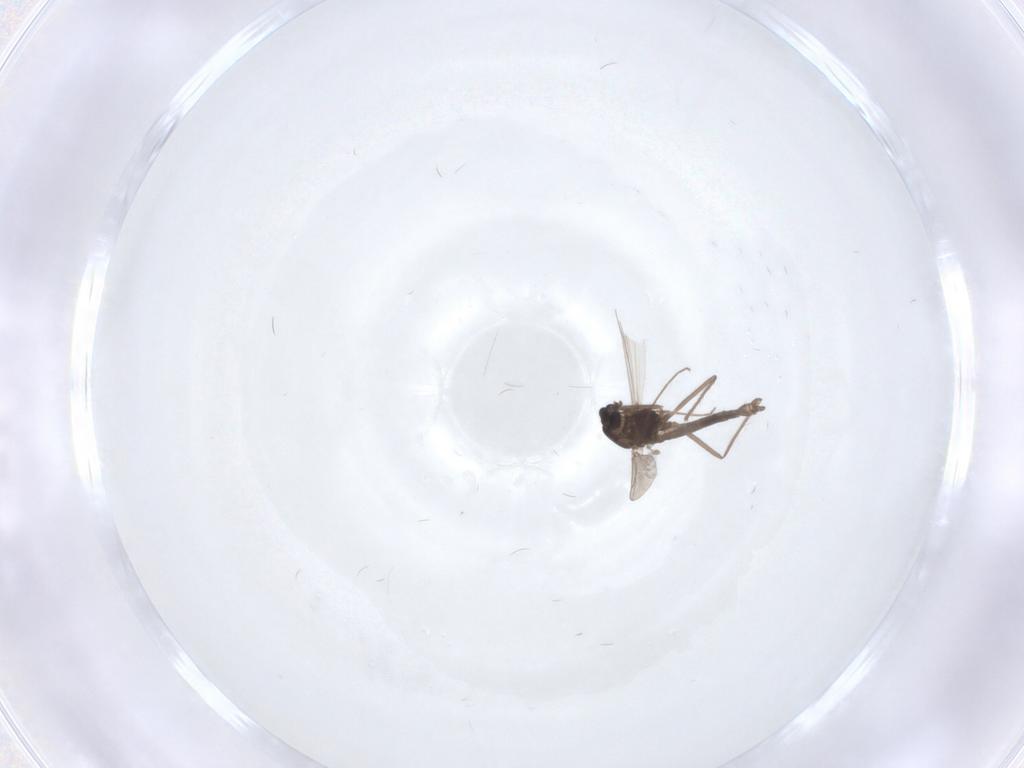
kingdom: Animalia
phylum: Arthropoda
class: Insecta
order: Diptera
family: Chironomidae
